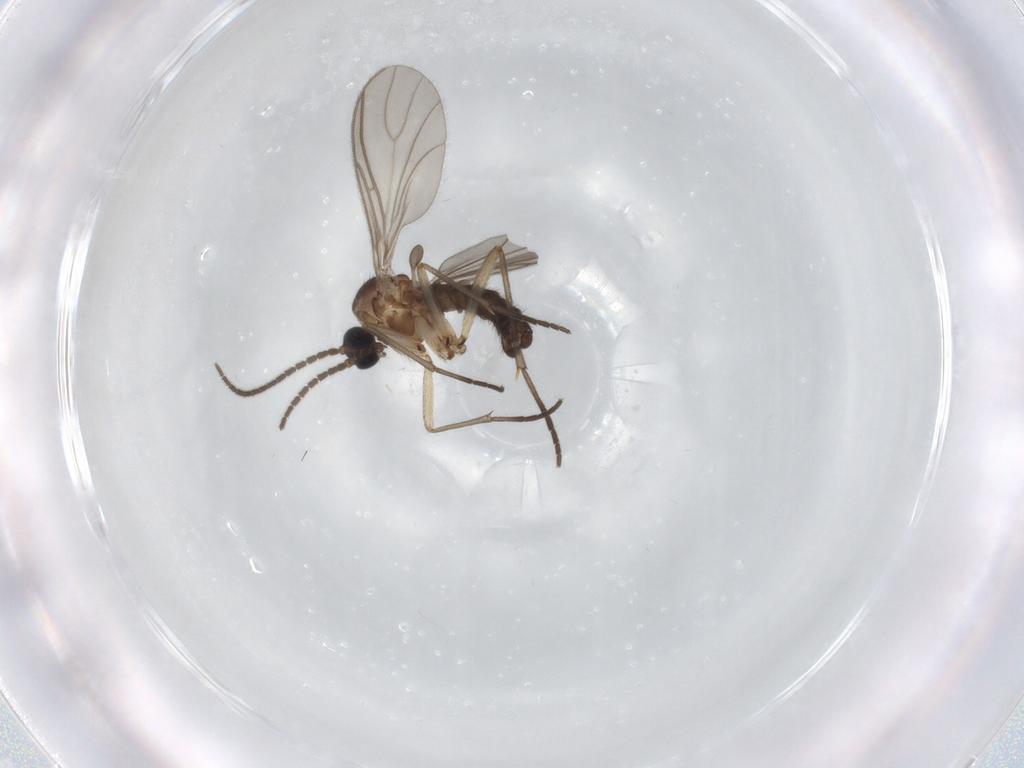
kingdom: Animalia
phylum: Arthropoda
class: Insecta
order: Diptera
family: Sciaridae
